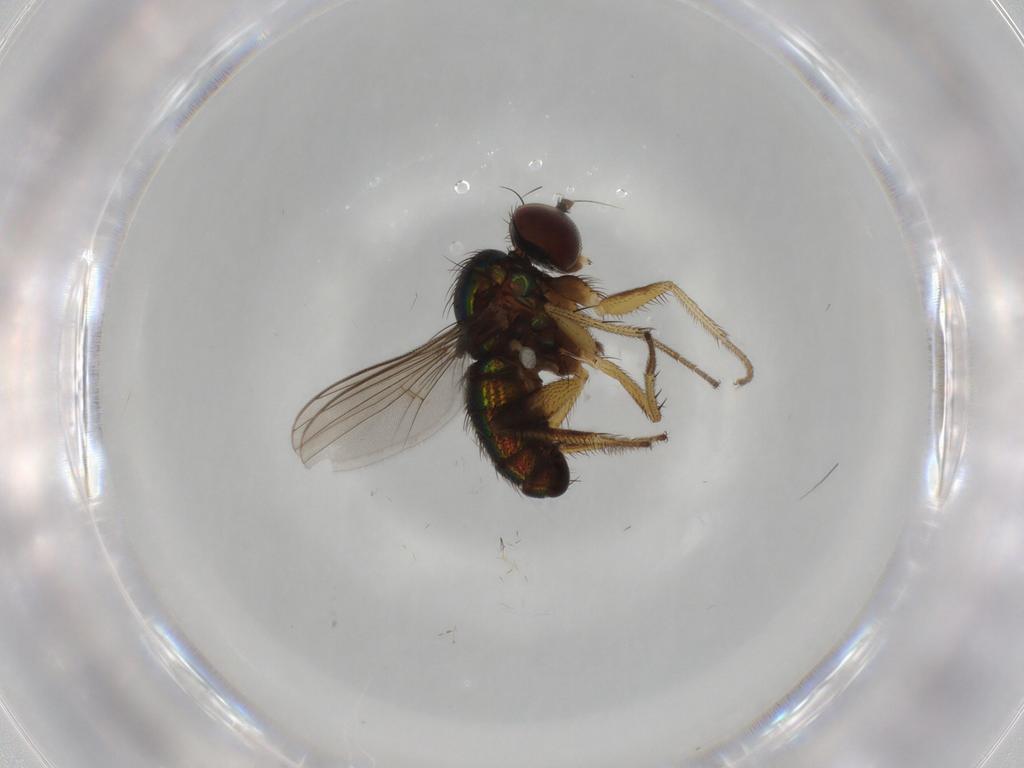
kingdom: Animalia
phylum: Arthropoda
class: Insecta
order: Diptera
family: Dolichopodidae
